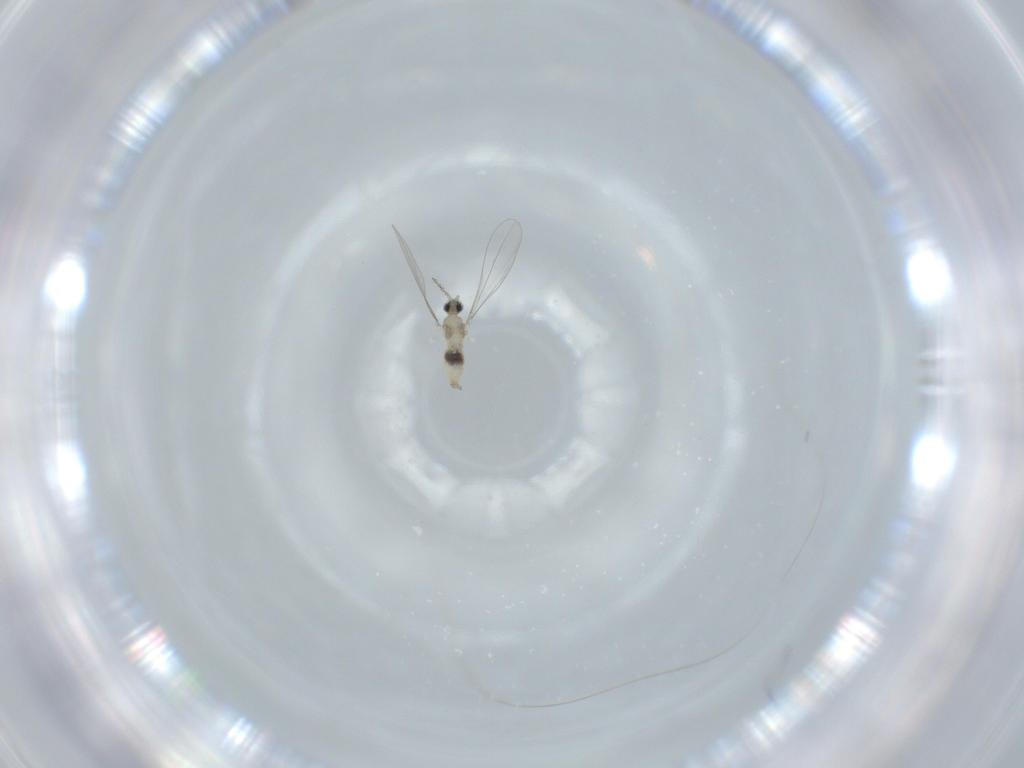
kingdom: Animalia
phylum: Arthropoda
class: Insecta
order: Diptera
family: Cecidomyiidae
